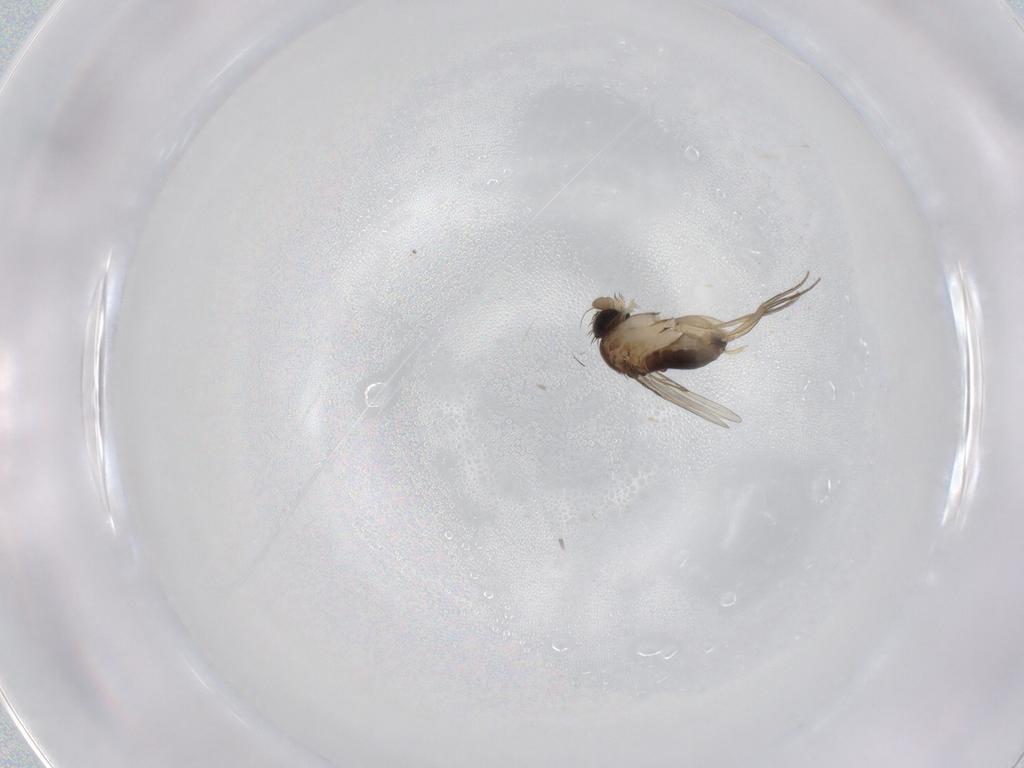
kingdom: Animalia
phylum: Arthropoda
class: Insecta
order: Diptera
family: Phoridae
